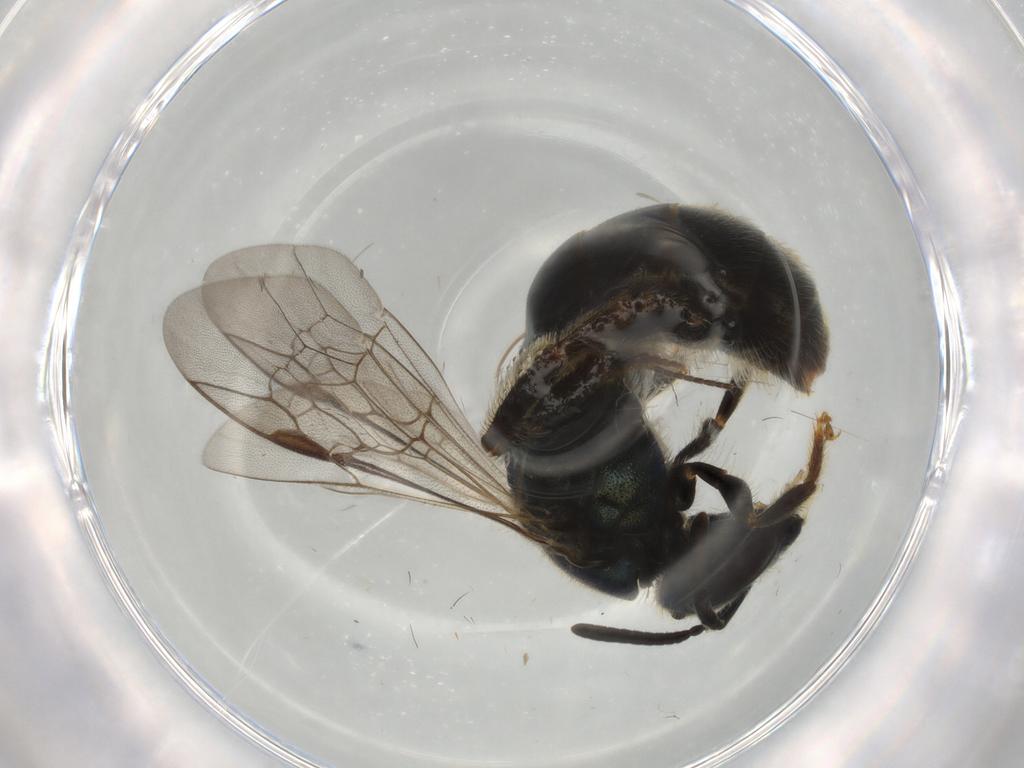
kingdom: Animalia
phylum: Arthropoda
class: Insecta
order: Hymenoptera
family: Halictidae
